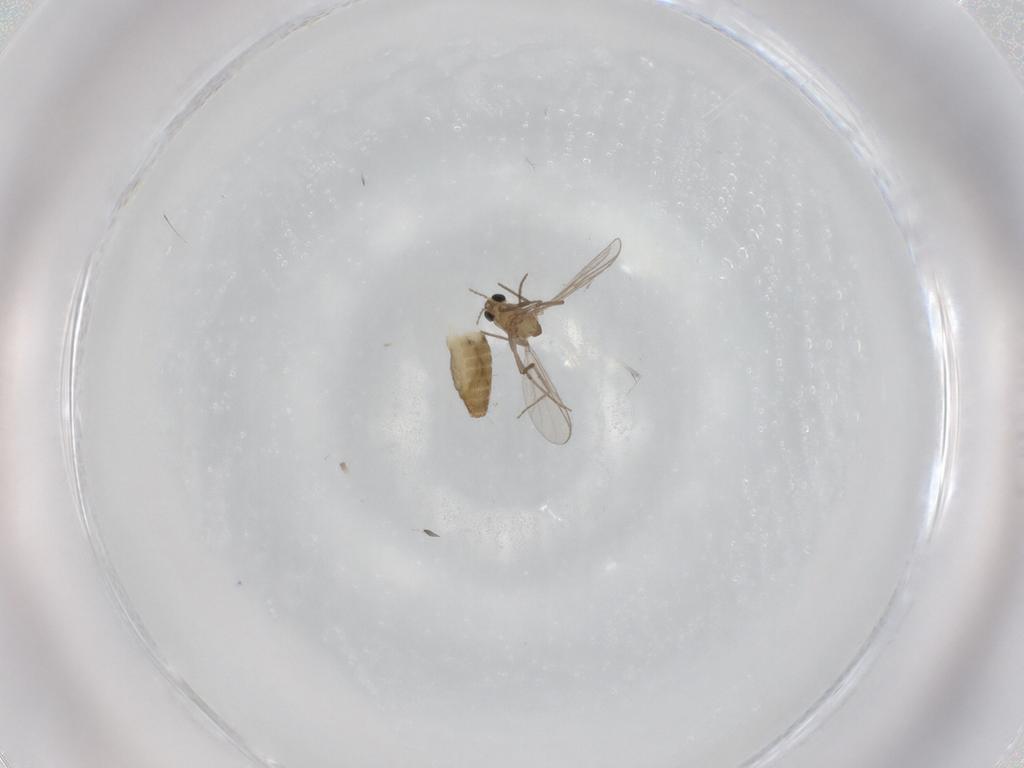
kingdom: Animalia
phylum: Arthropoda
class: Insecta
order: Diptera
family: Chironomidae
